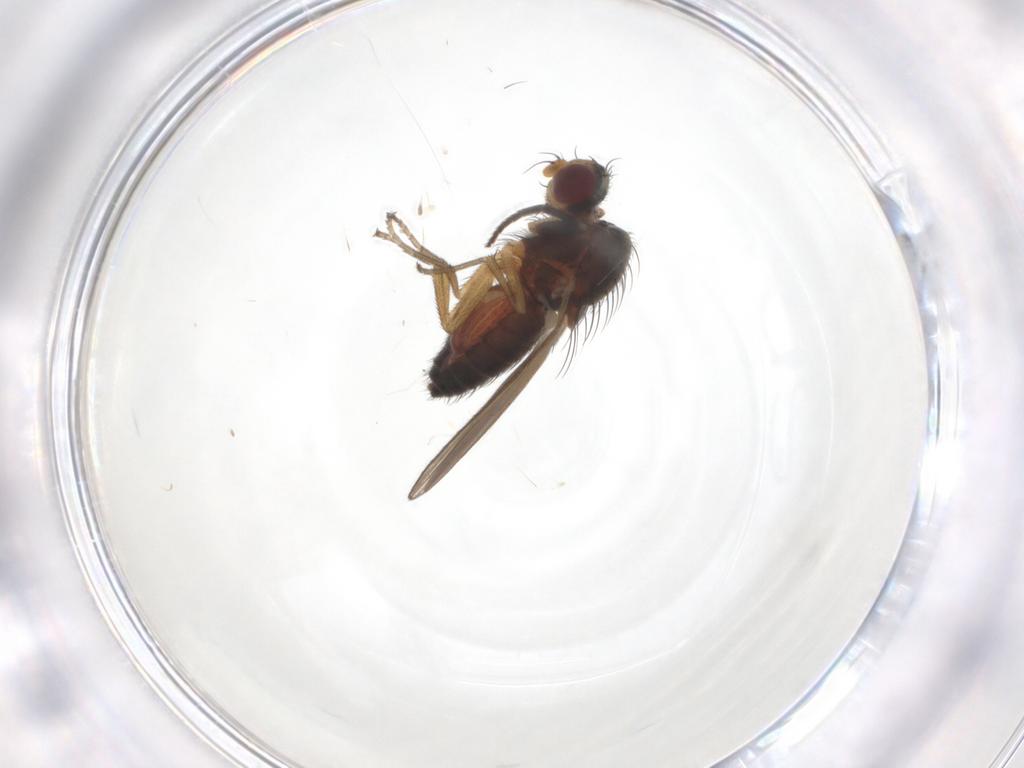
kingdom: Animalia
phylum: Arthropoda
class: Insecta
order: Diptera
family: Heleomyzidae
